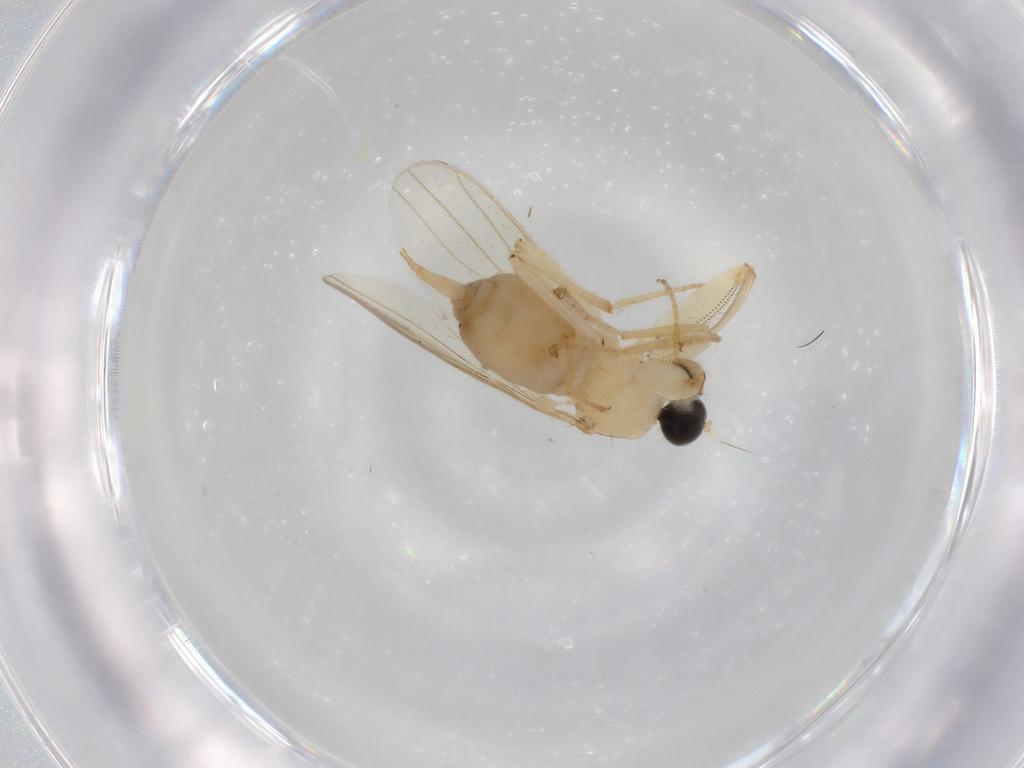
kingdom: Animalia
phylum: Arthropoda
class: Insecta
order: Diptera
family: Hybotidae
